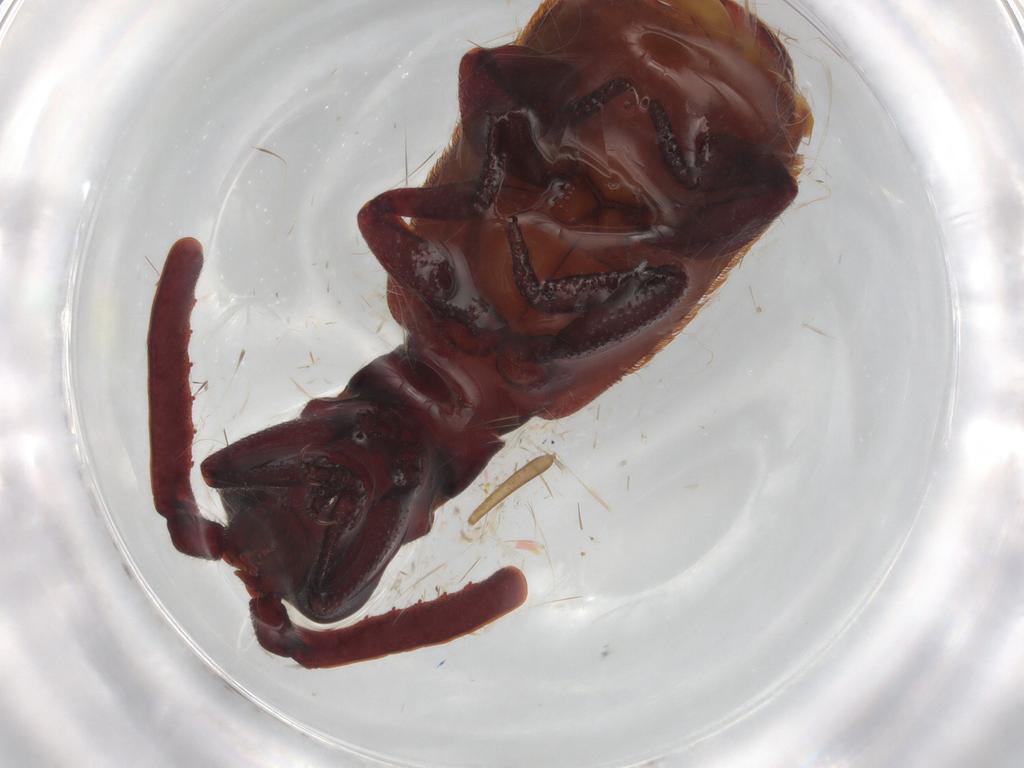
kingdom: Animalia
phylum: Arthropoda
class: Insecta
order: Coleoptera
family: Carabidae
